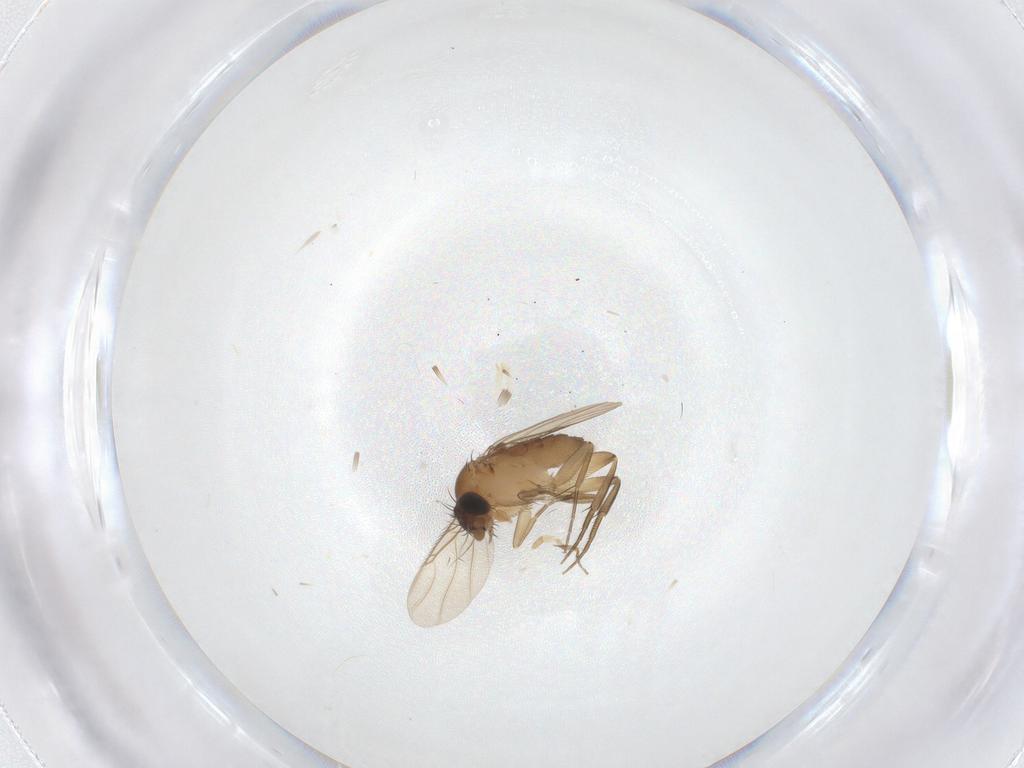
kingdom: Animalia
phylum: Arthropoda
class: Insecta
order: Diptera
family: Phoridae
